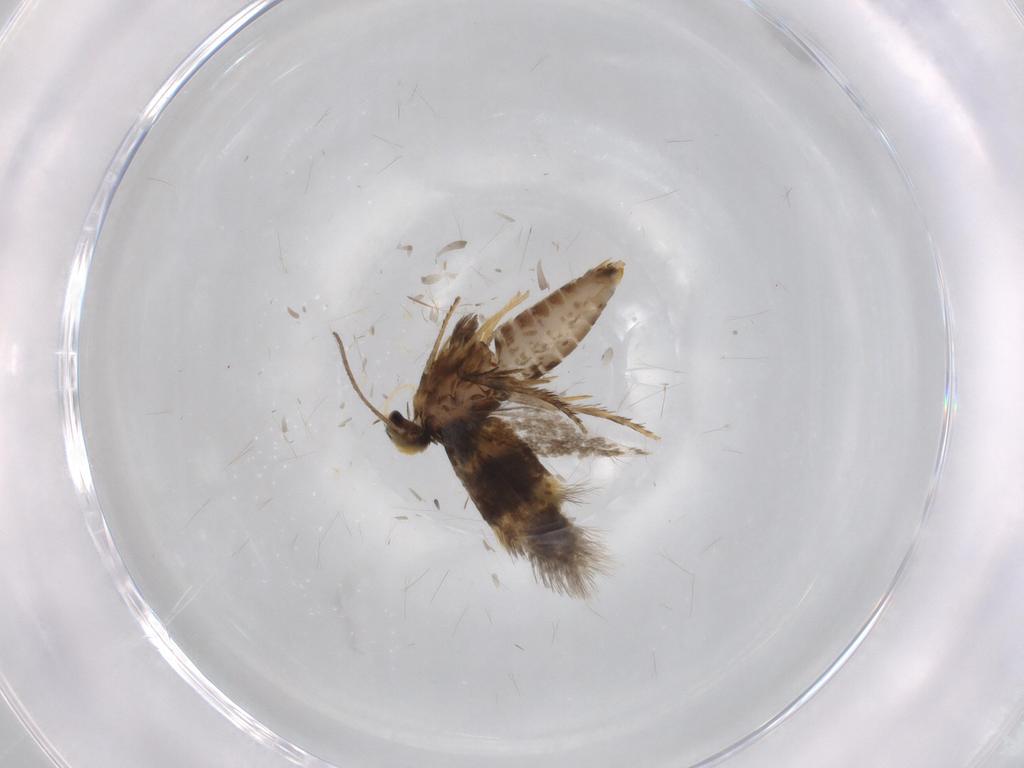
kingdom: Animalia
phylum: Arthropoda
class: Insecta
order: Lepidoptera
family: Heliozelidae
